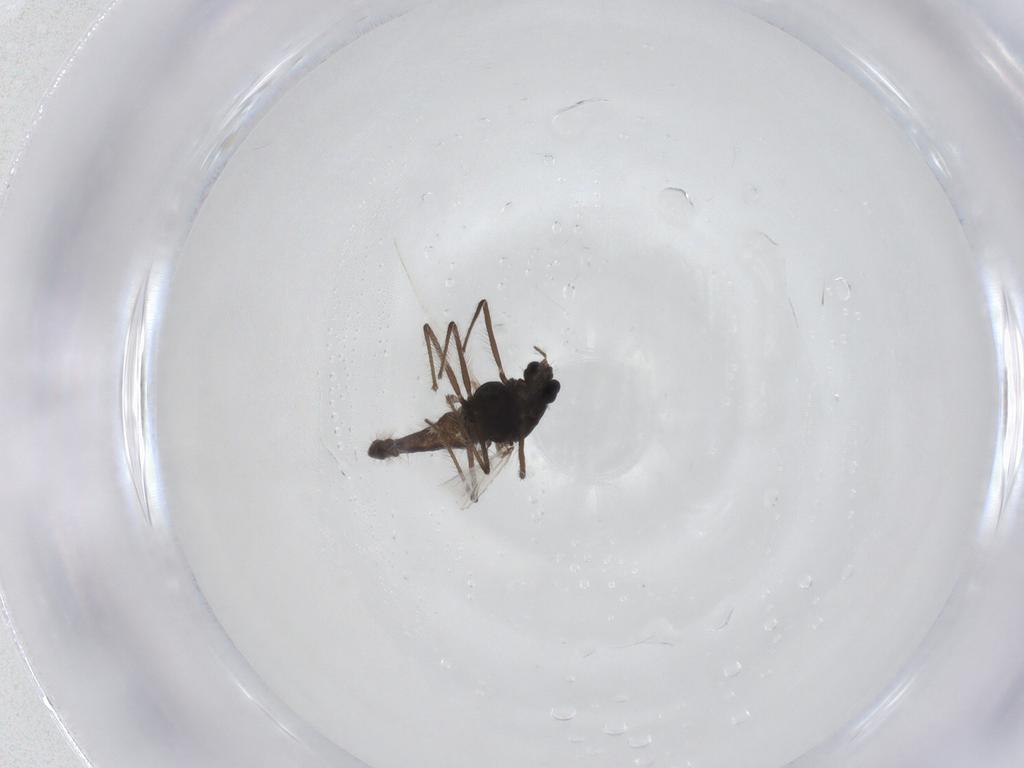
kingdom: Animalia
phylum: Arthropoda
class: Insecta
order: Diptera
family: Chironomidae
